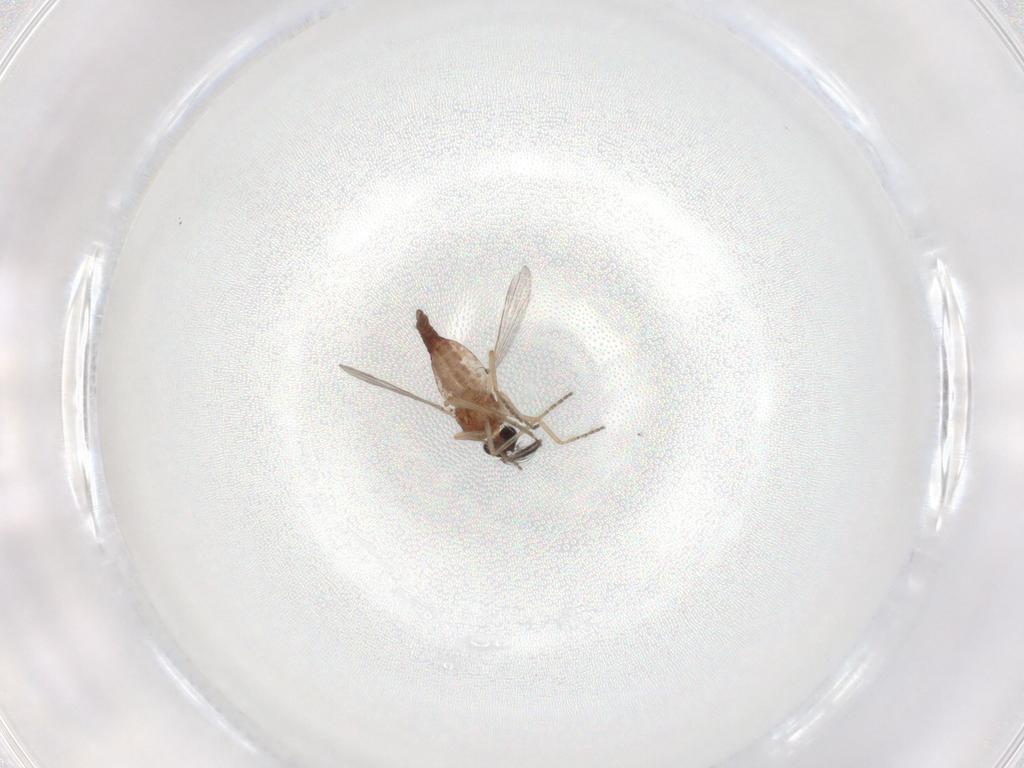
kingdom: Animalia
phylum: Arthropoda
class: Insecta
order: Diptera
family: Ceratopogonidae
